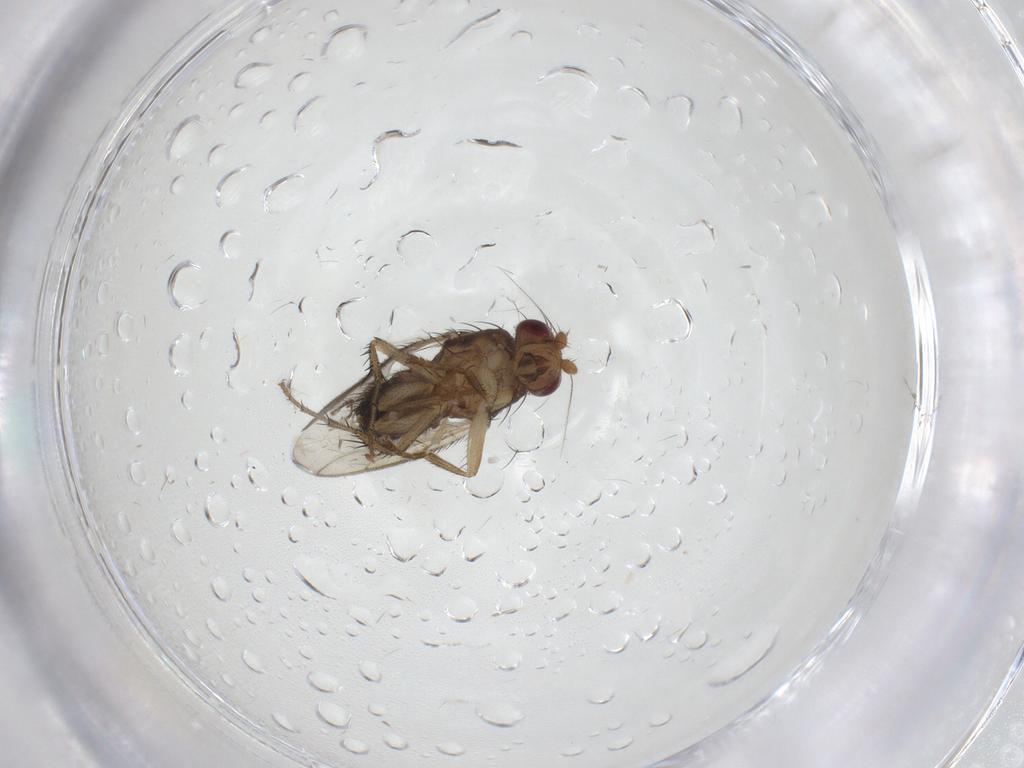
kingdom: Animalia
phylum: Arthropoda
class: Insecta
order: Diptera
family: Sphaeroceridae
